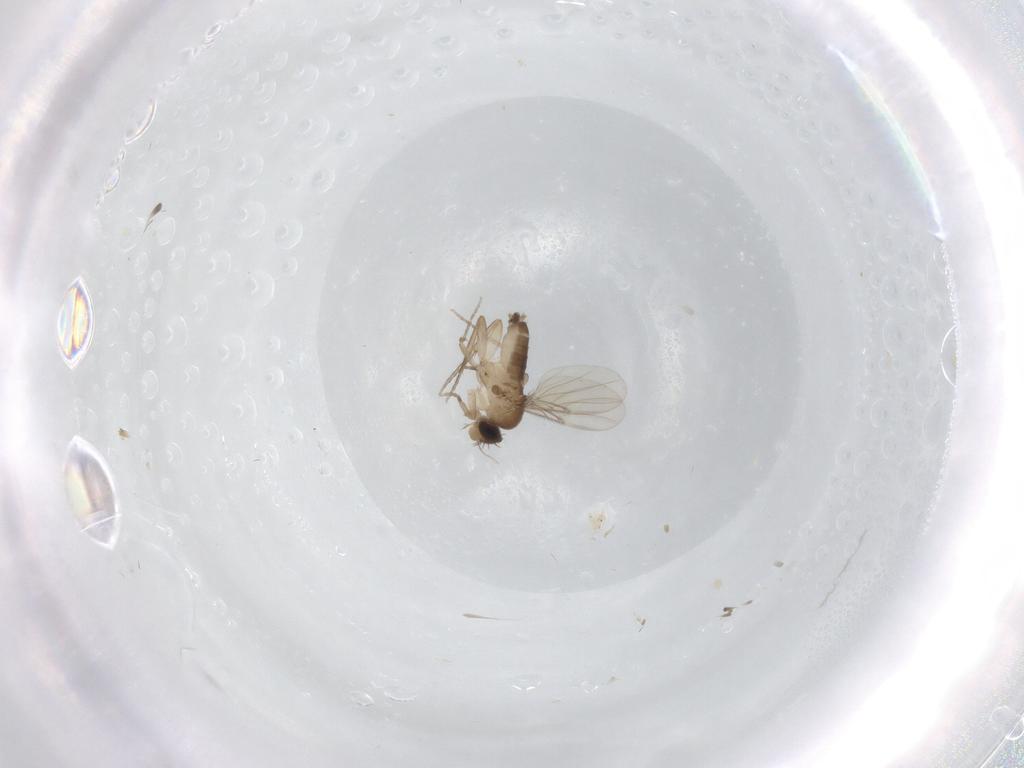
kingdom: Animalia
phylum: Arthropoda
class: Insecta
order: Diptera
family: Phoridae
